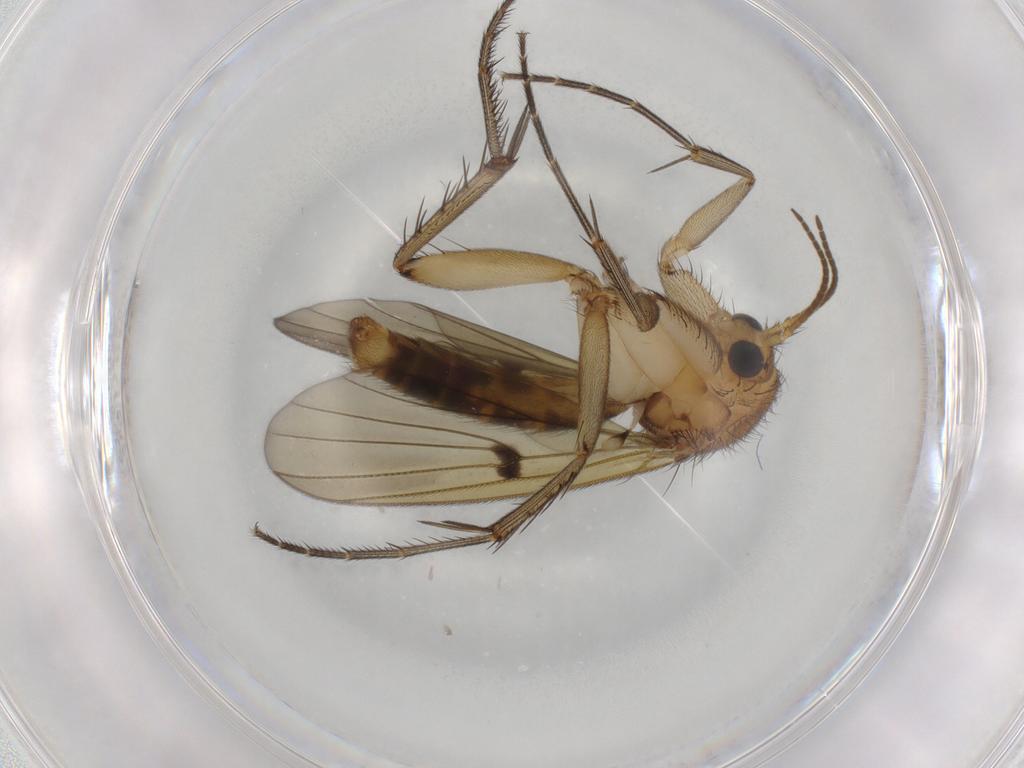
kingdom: Animalia
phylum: Arthropoda
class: Insecta
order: Diptera
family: Mycetophilidae
